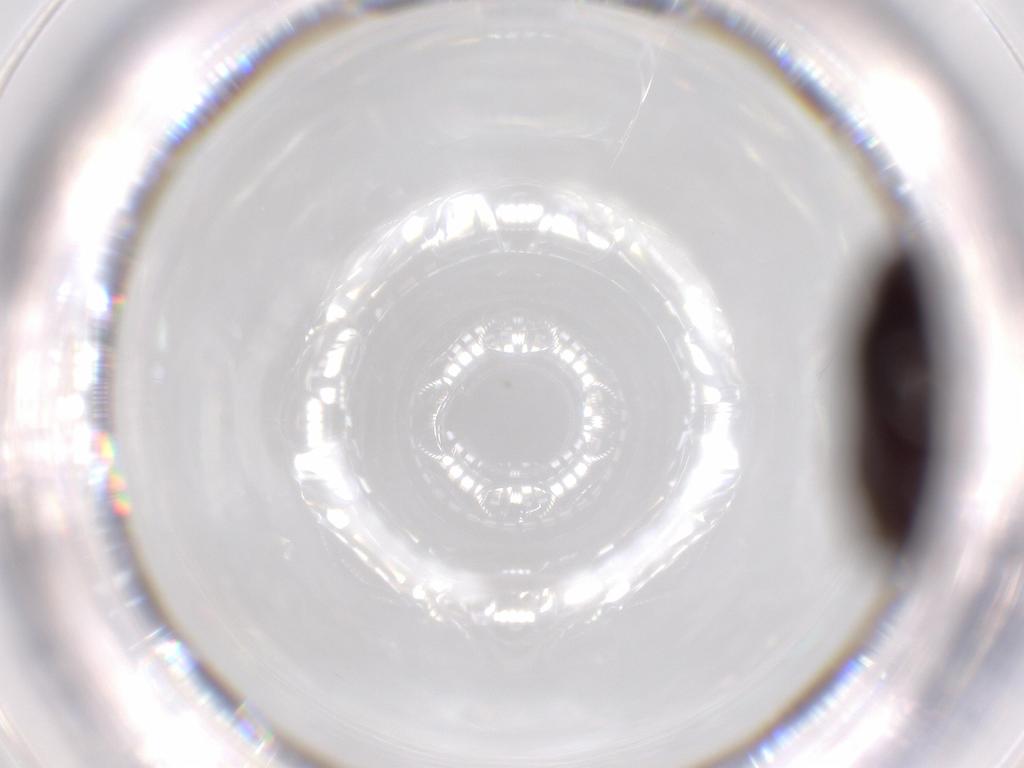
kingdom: Animalia
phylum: Arthropoda
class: Insecta
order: Coleoptera
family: Throscidae
